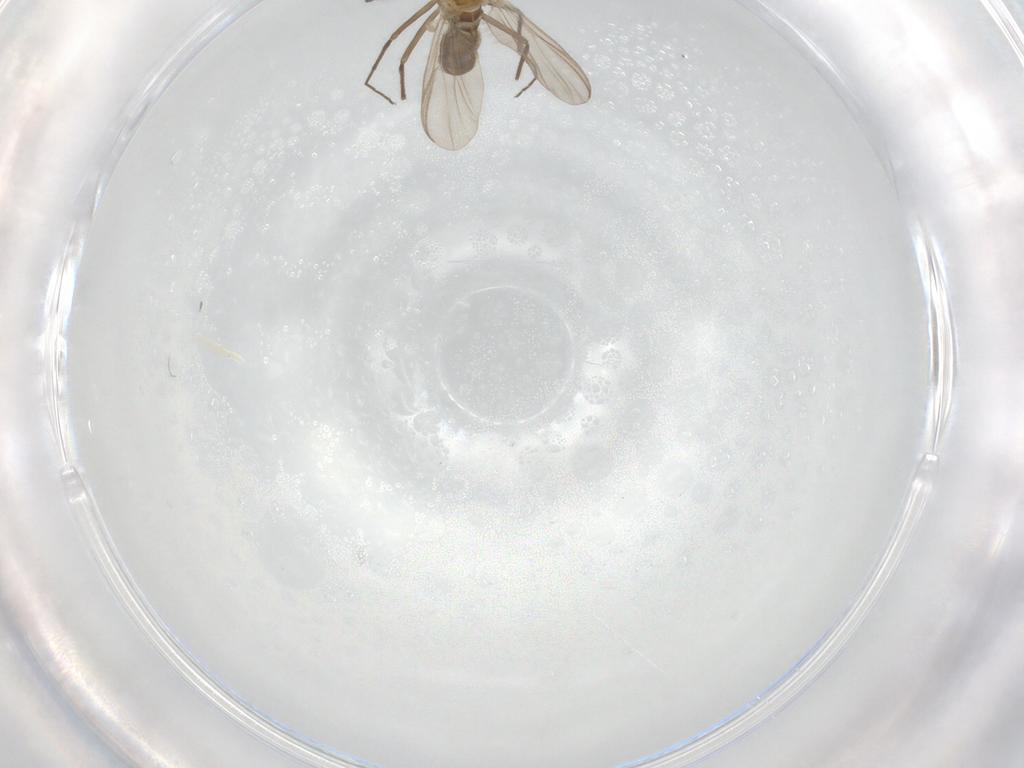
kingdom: Animalia
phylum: Arthropoda
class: Insecta
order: Diptera
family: Chironomidae
